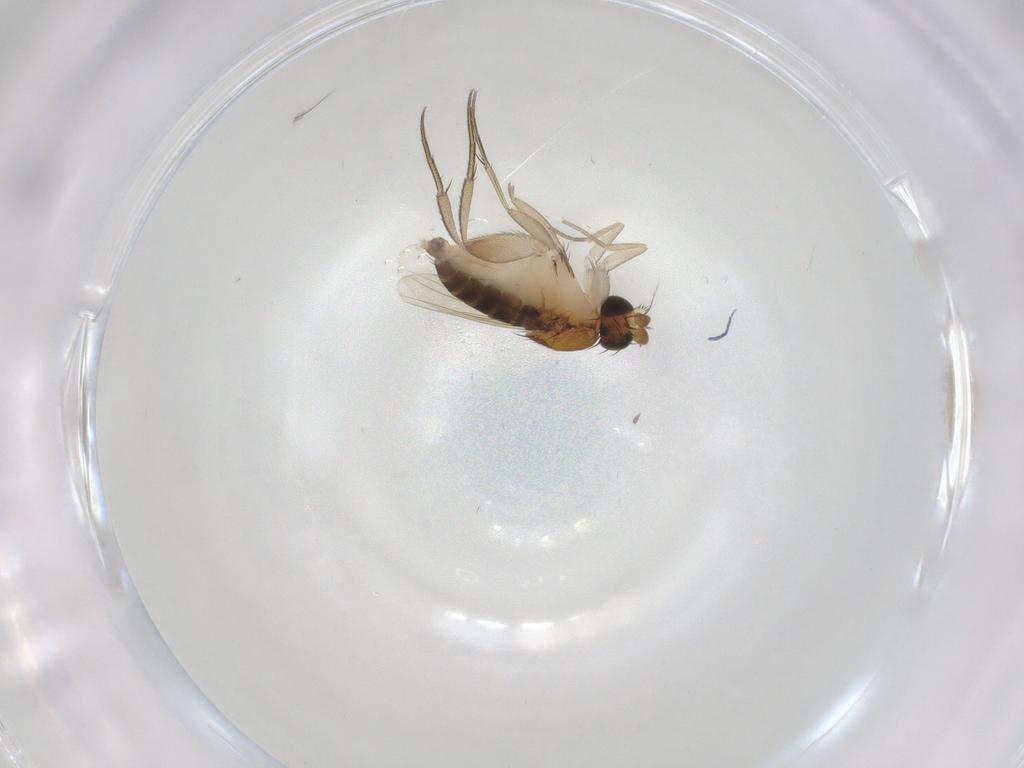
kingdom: Animalia
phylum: Arthropoda
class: Insecta
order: Diptera
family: Phoridae
